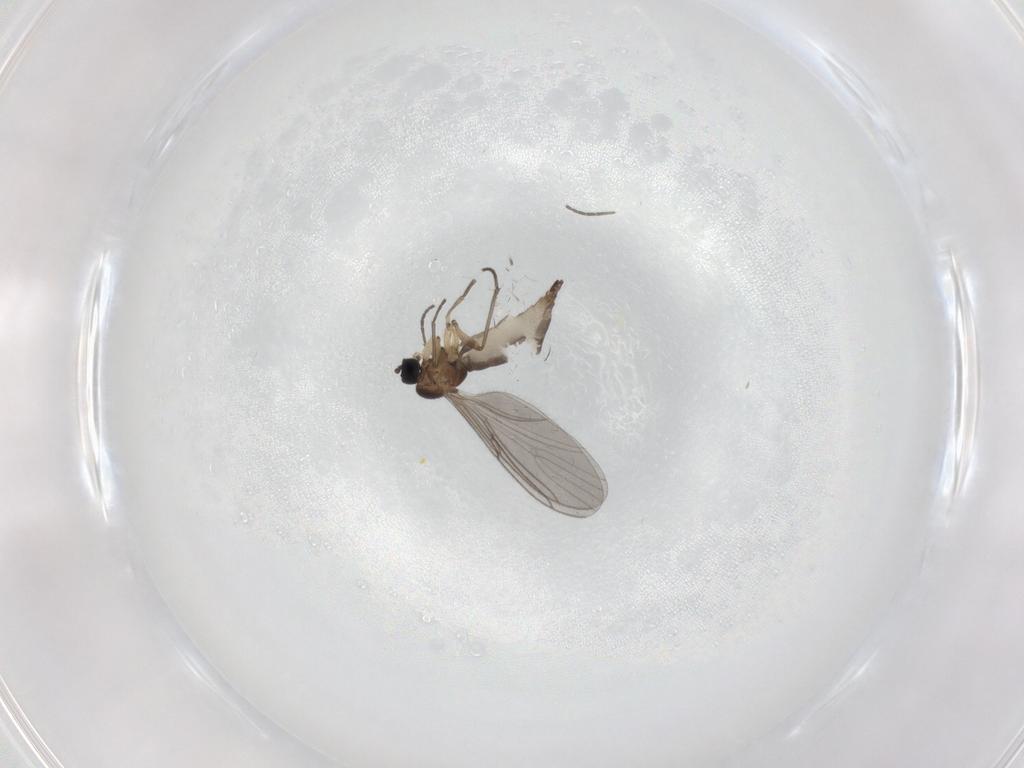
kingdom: Animalia
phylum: Arthropoda
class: Insecta
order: Diptera
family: Sciaridae
